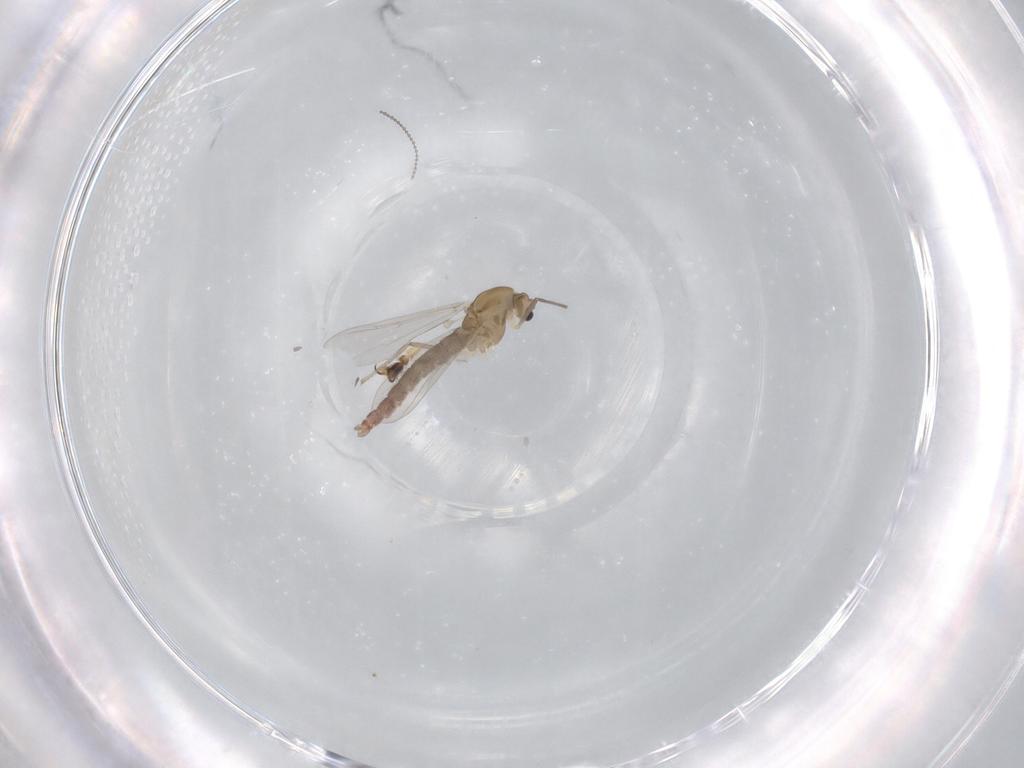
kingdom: Animalia
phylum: Arthropoda
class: Insecta
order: Diptera
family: Chironomidae
